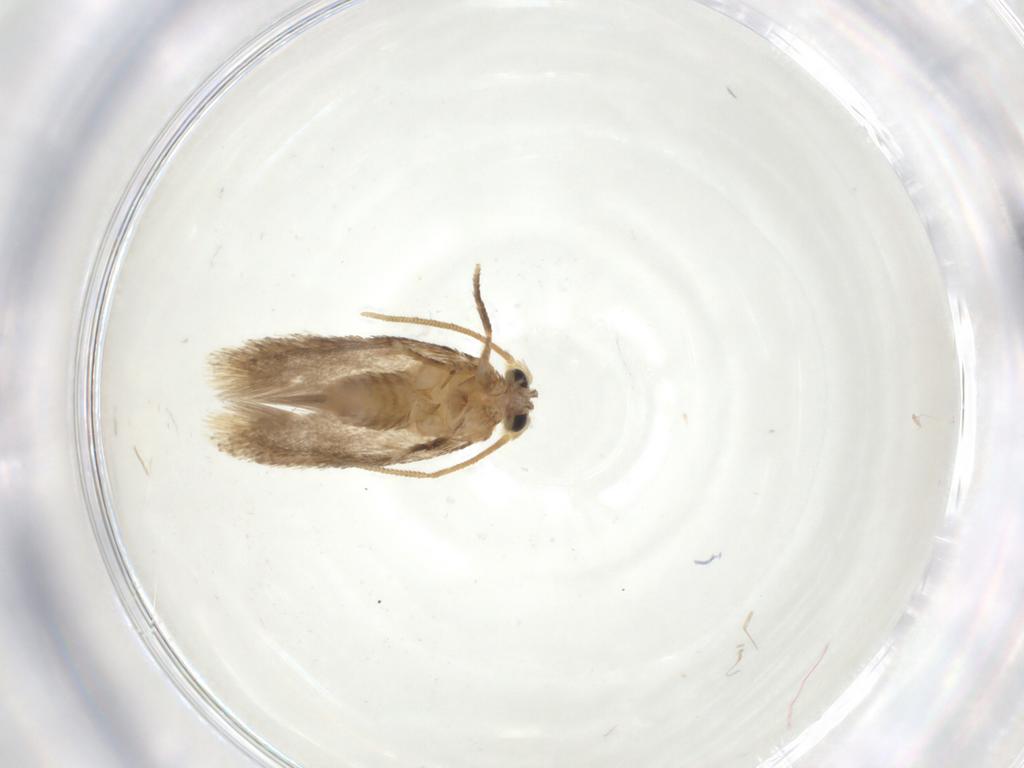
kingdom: Animalia
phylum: Arthropoda
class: Insecta
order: Lepidoptera
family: Nepticulidae
